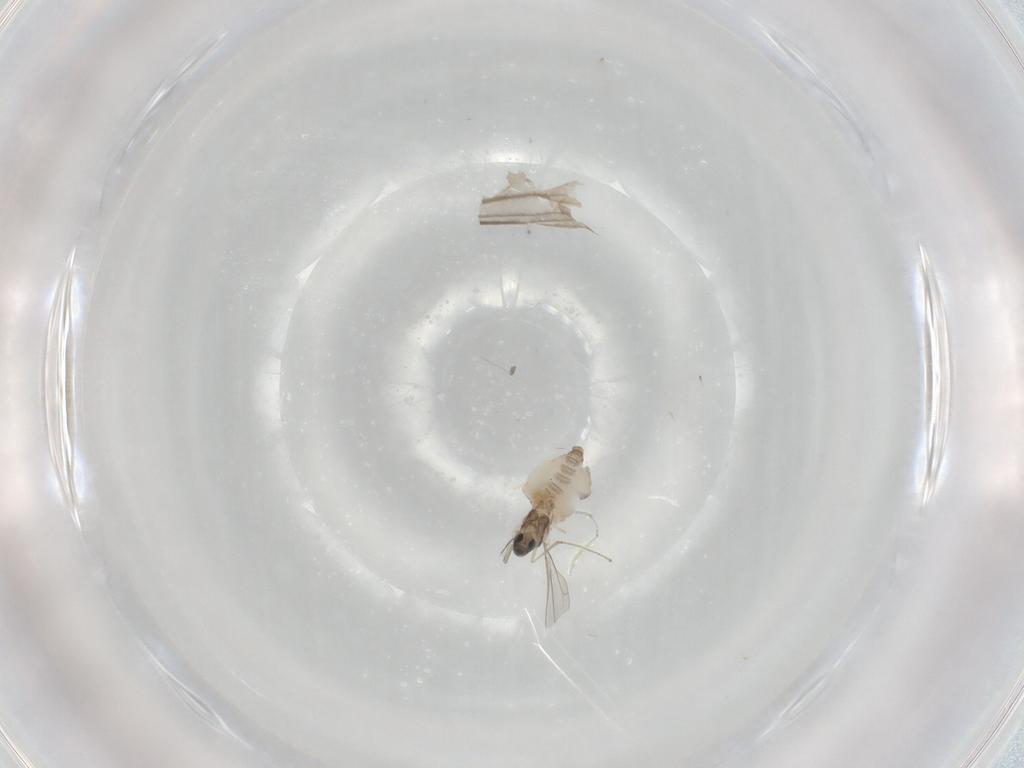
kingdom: Animalia
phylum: Arthropoda
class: Insecta
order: Diptera
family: Cecidomyiidae
